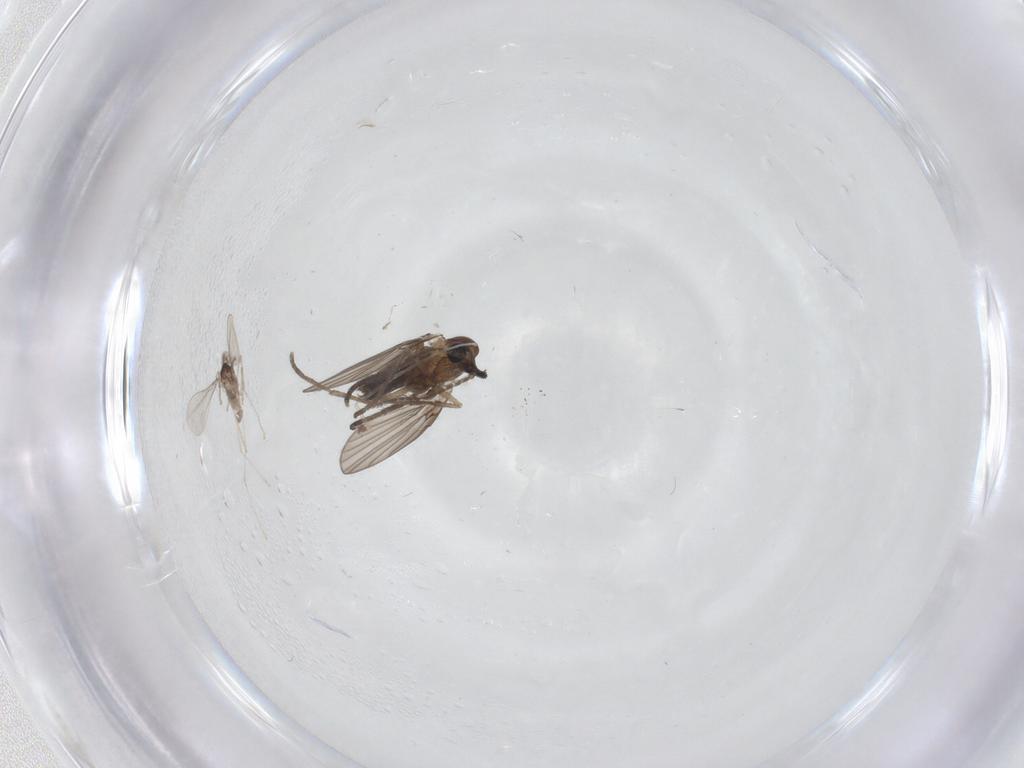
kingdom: Animalia
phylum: Arthropoda
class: Insecta
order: Diptera
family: Cecidomyiidae
